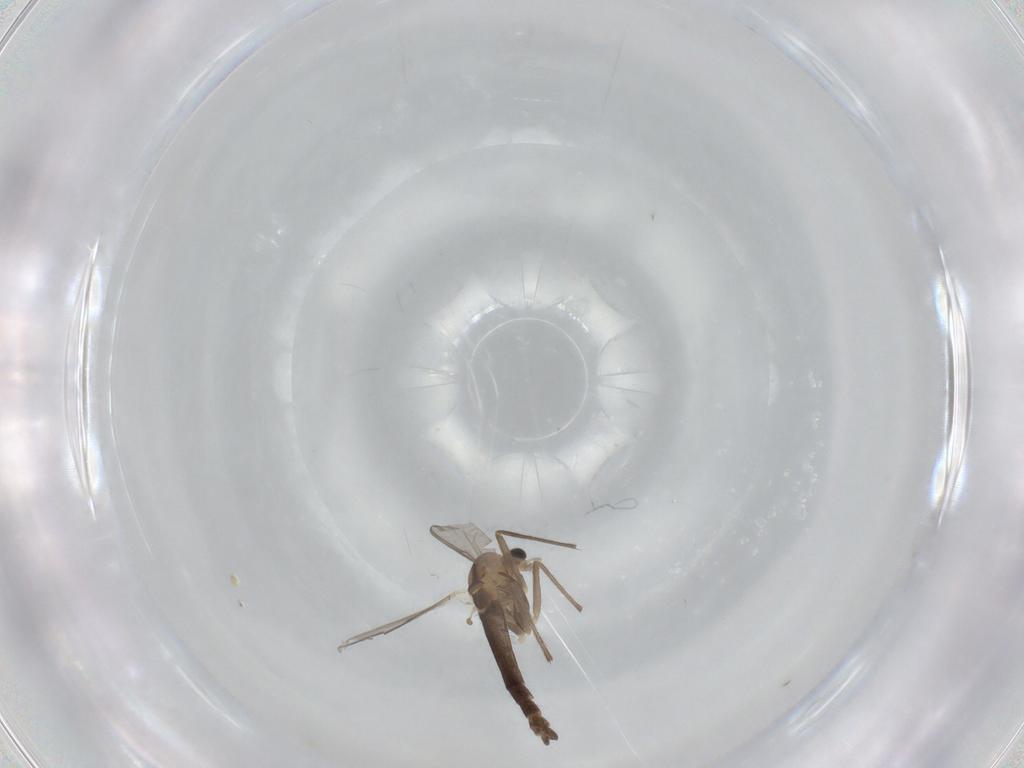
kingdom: Animalia
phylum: Arthropoda
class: Insecta
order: Diptera
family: Chironomidae
